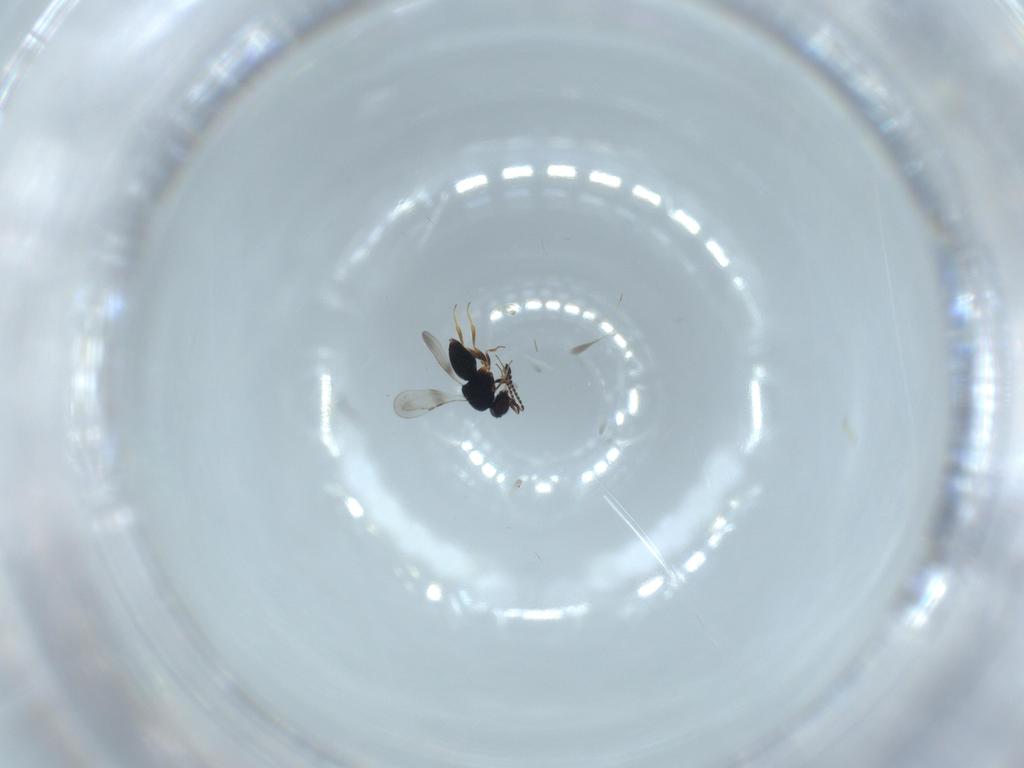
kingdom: Animalia
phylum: Arthropoda
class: Insecta
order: Hymenoptera
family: Formicidae
